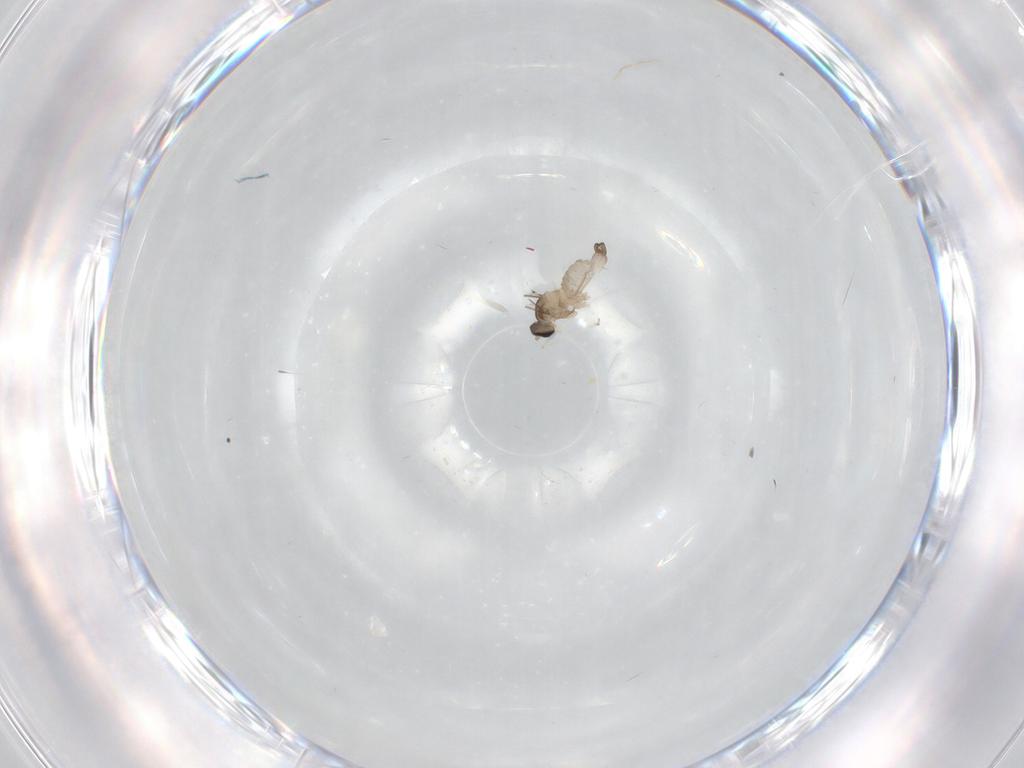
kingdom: Animalia
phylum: Arthropoda
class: Insecta
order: Diptera
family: Cecidomyiidae
